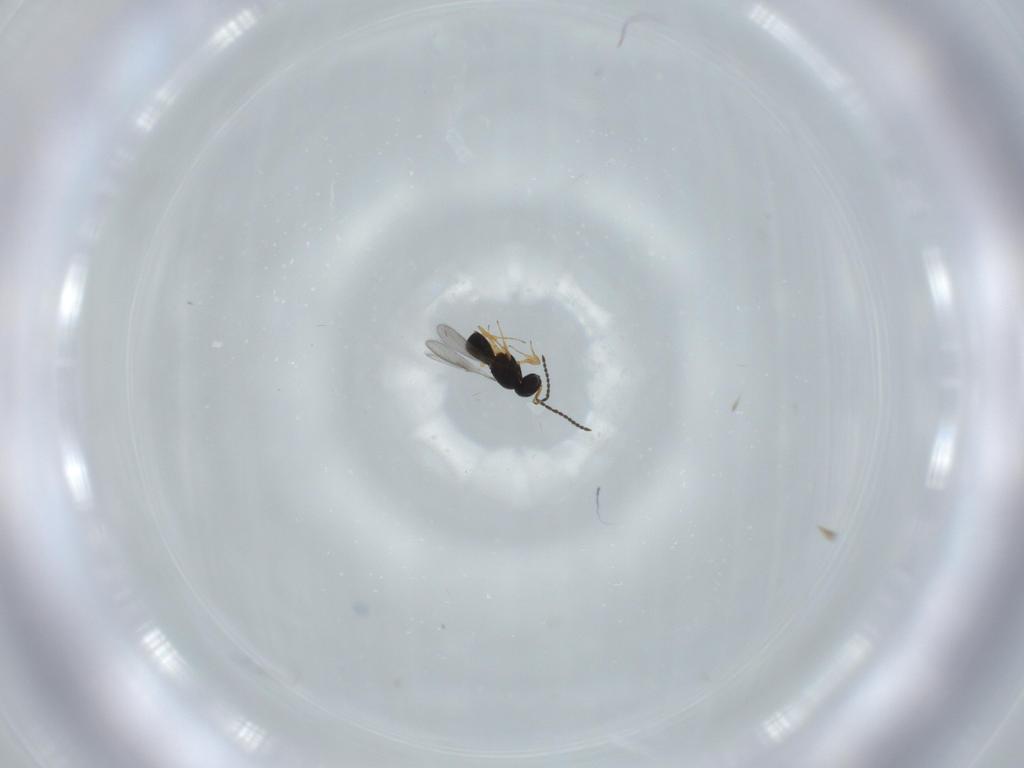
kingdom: Animalia
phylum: Arthropoda
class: Insecta
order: Hymenoptera
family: Scelionidae
